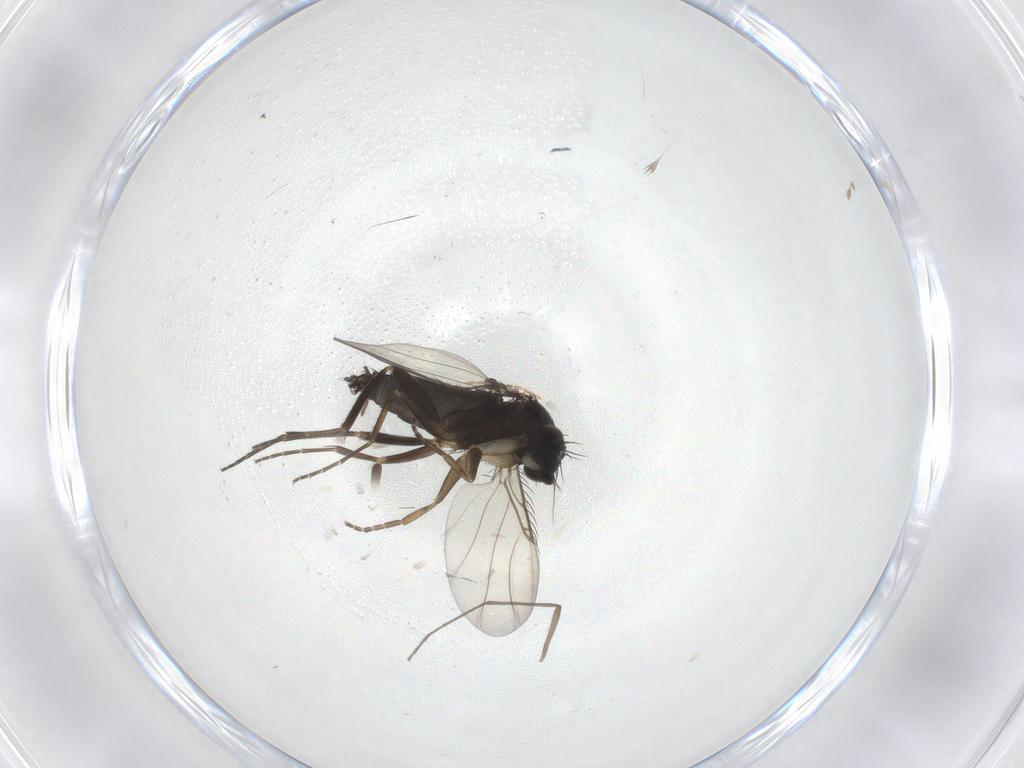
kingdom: Animalia
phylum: Arthropoda
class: Insecta
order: Diptera
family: Phoridae
